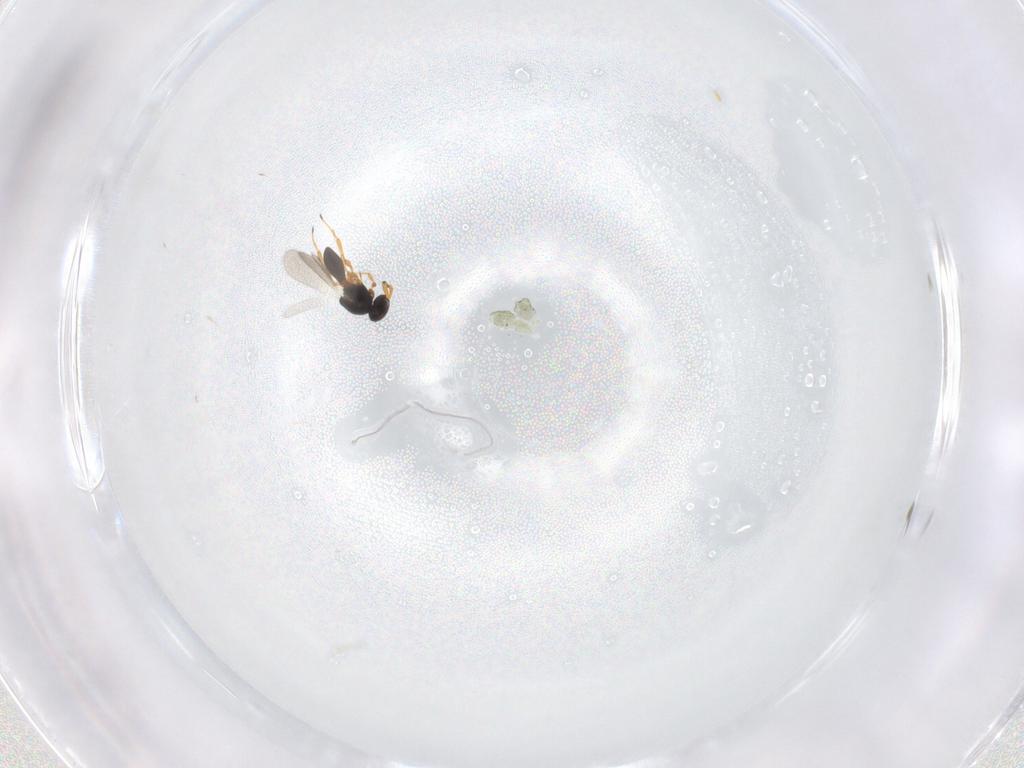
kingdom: Animalia
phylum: Arthropoda
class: Insecta
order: Hymenoptera
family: Platygastridae
